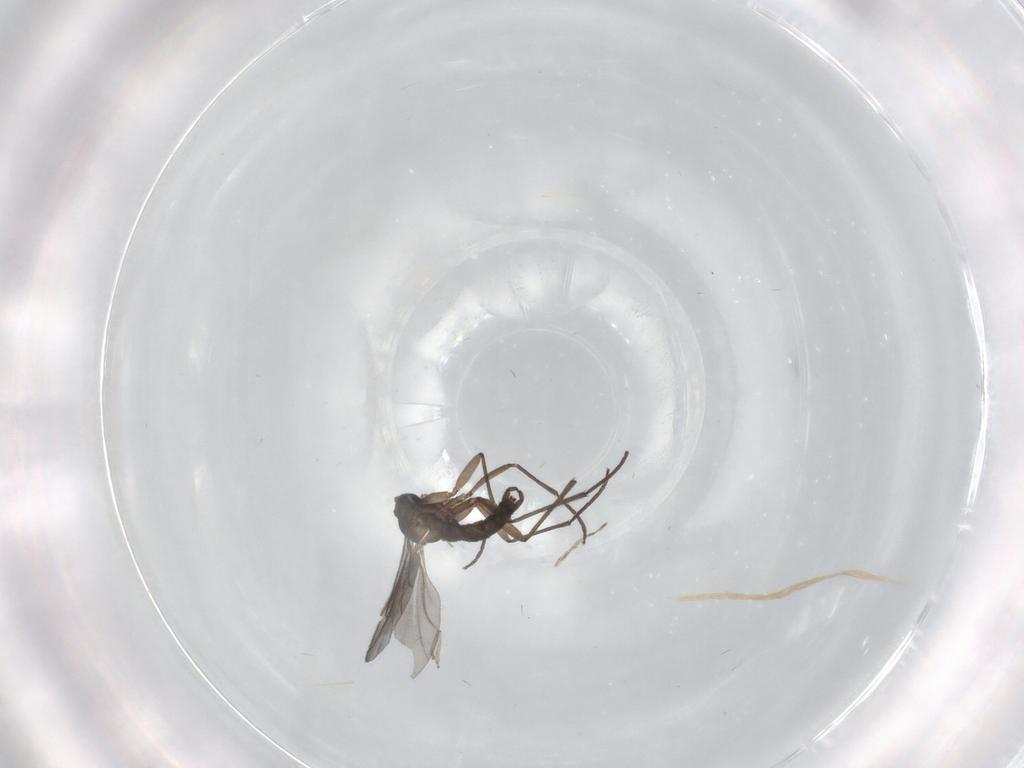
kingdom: Animalia
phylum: Arthropoda
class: Insecta
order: Diptera
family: Sciaridae
